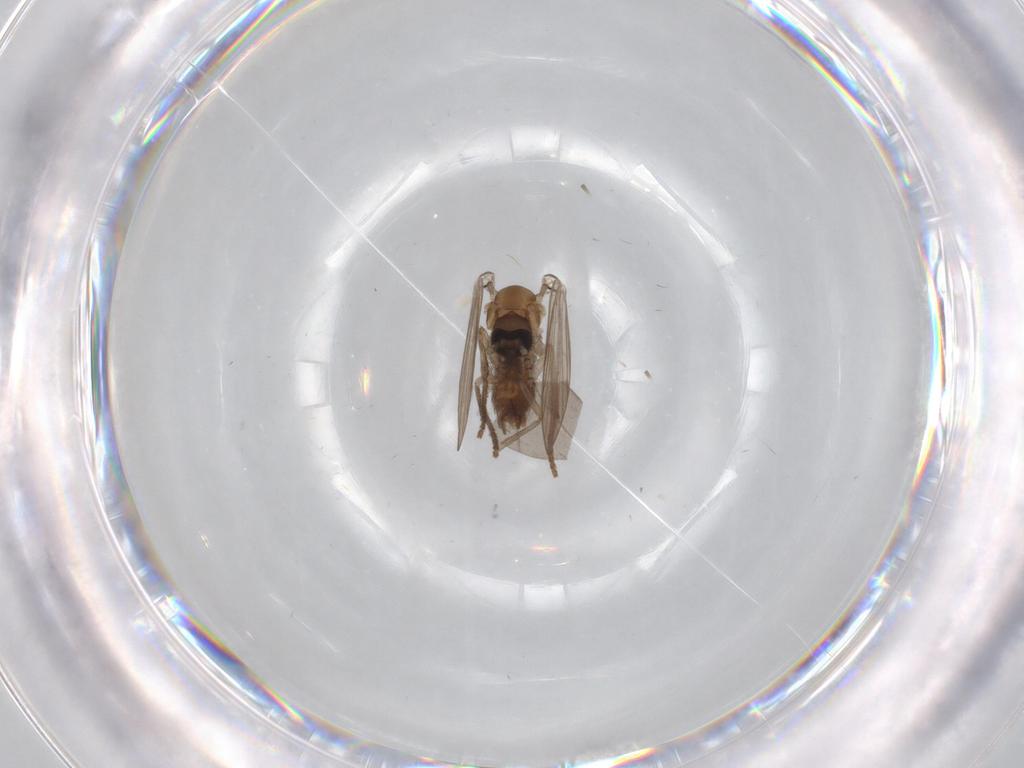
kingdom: Animalia
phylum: Arthropoda
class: Insecta
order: Diptera
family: Psychodidae
